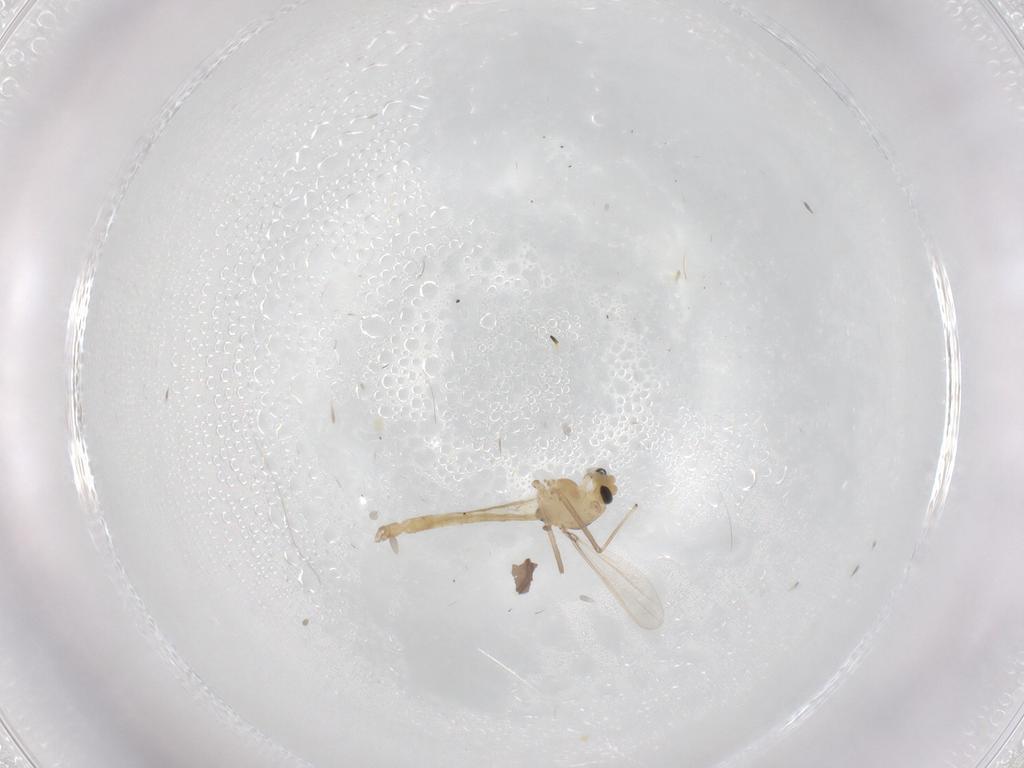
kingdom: Animalia
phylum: Arthropoda
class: Insecta
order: Diptera
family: Chironomidae
